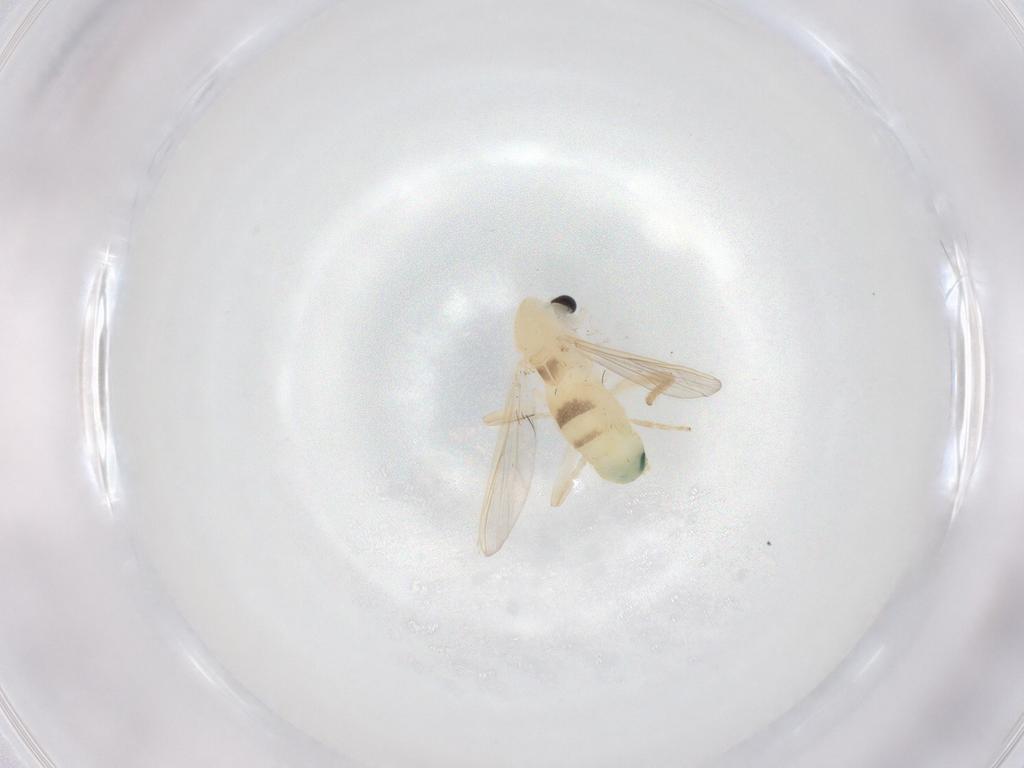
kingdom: Animalia
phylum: Arthropoda
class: Insecta
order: Diptera
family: Chironomidae
